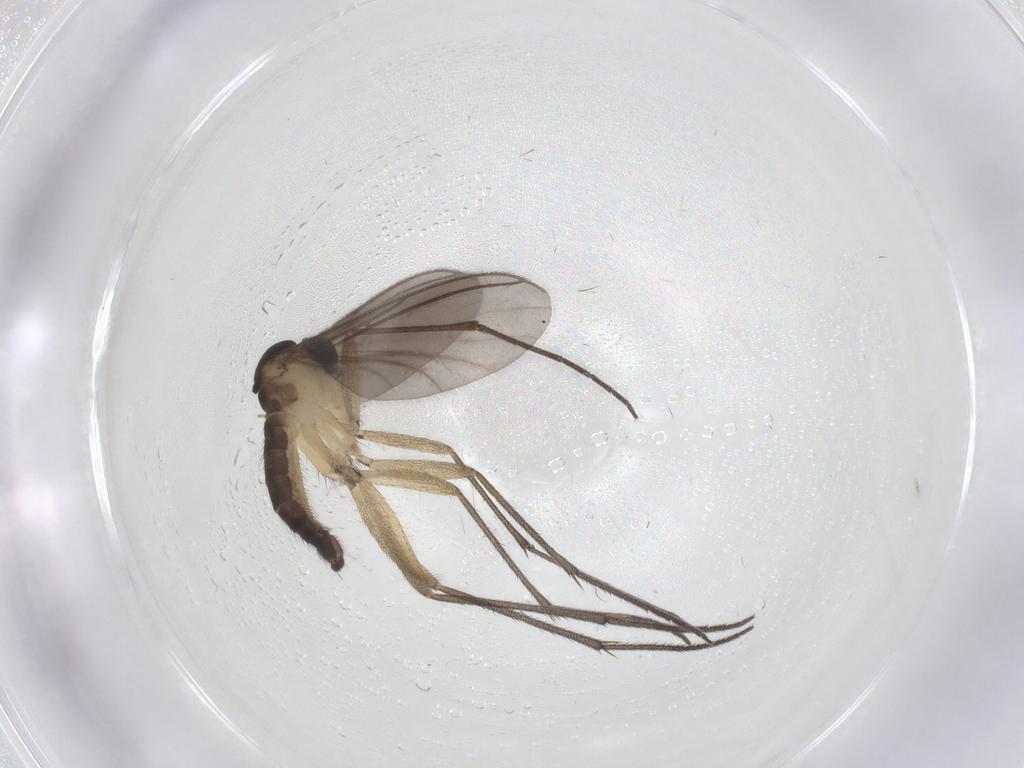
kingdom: Animalia
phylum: Arthropoda
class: Insecta
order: Diptera
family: Sciaridae
